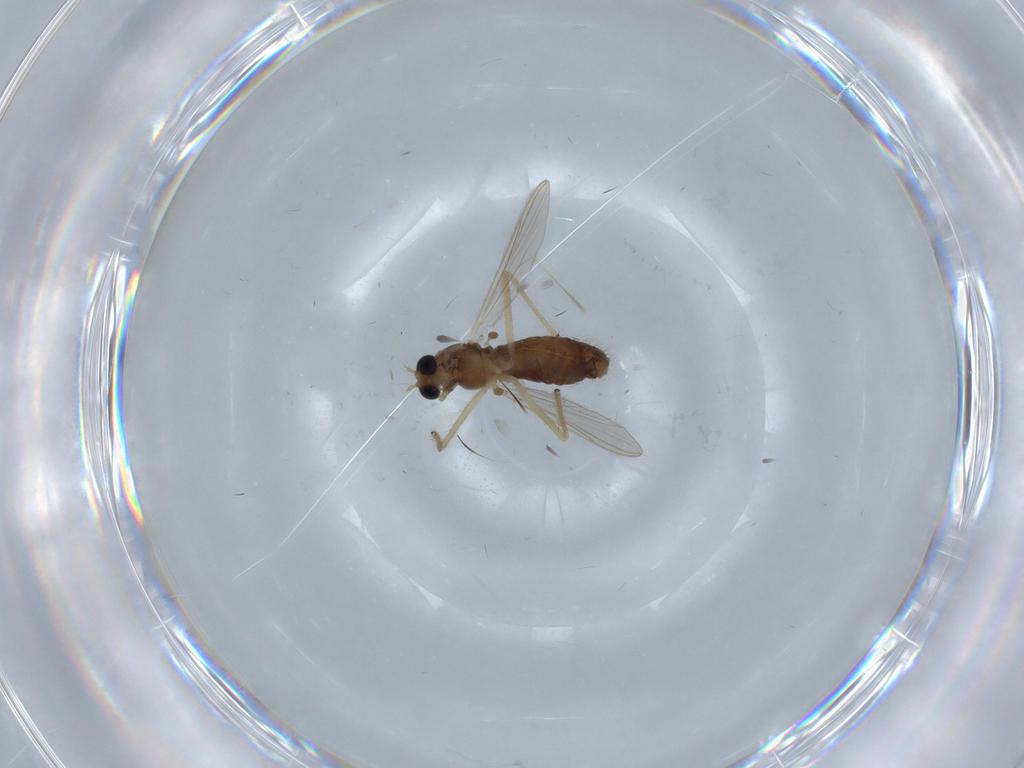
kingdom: Animalia
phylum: Arthropoda
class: Insecta
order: Diptera
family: Chironomidae
